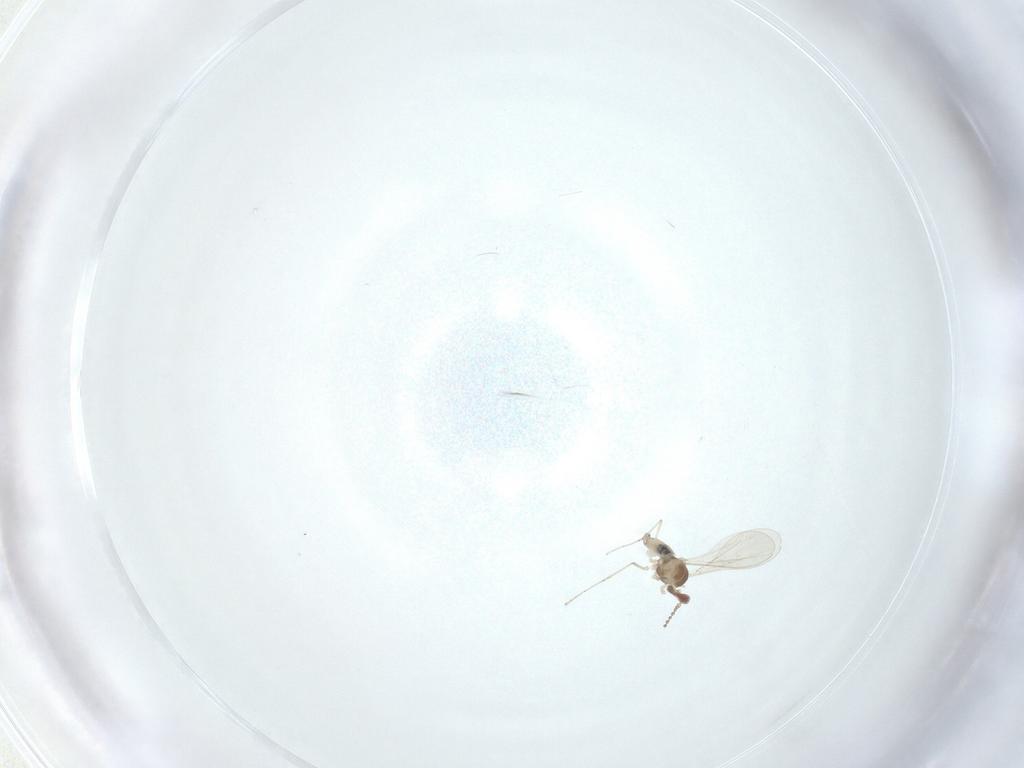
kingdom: Animalia
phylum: Arthropoda
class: Insecta
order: Diptera
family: Cecidomyiidae
